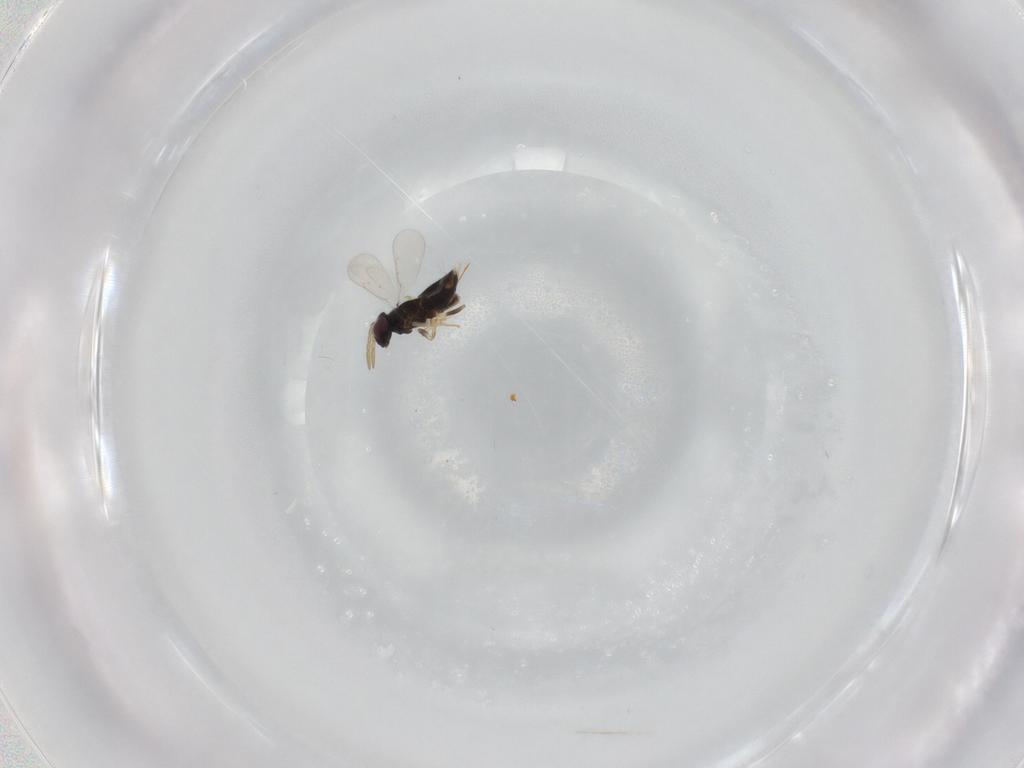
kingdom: Animalia
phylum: Arthropoda
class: Insecta
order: Hymenoptera
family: Aphelinidae
